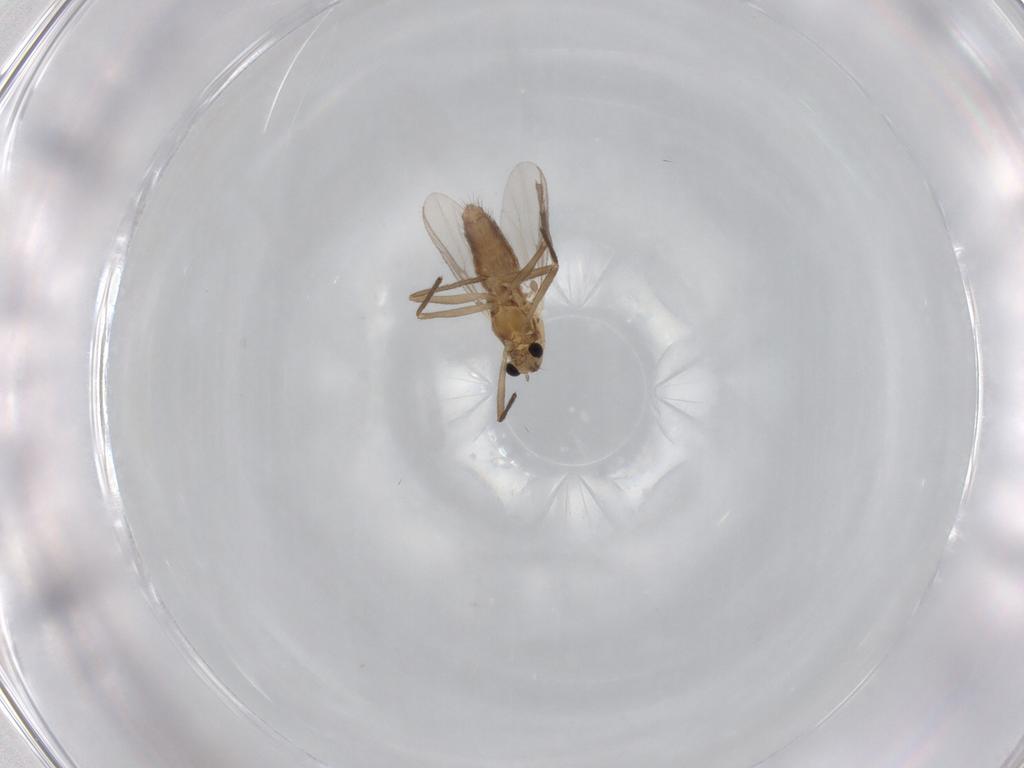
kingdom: Animalia
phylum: Arthropoda
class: Insecta
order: Diptera
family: Chironomidae
